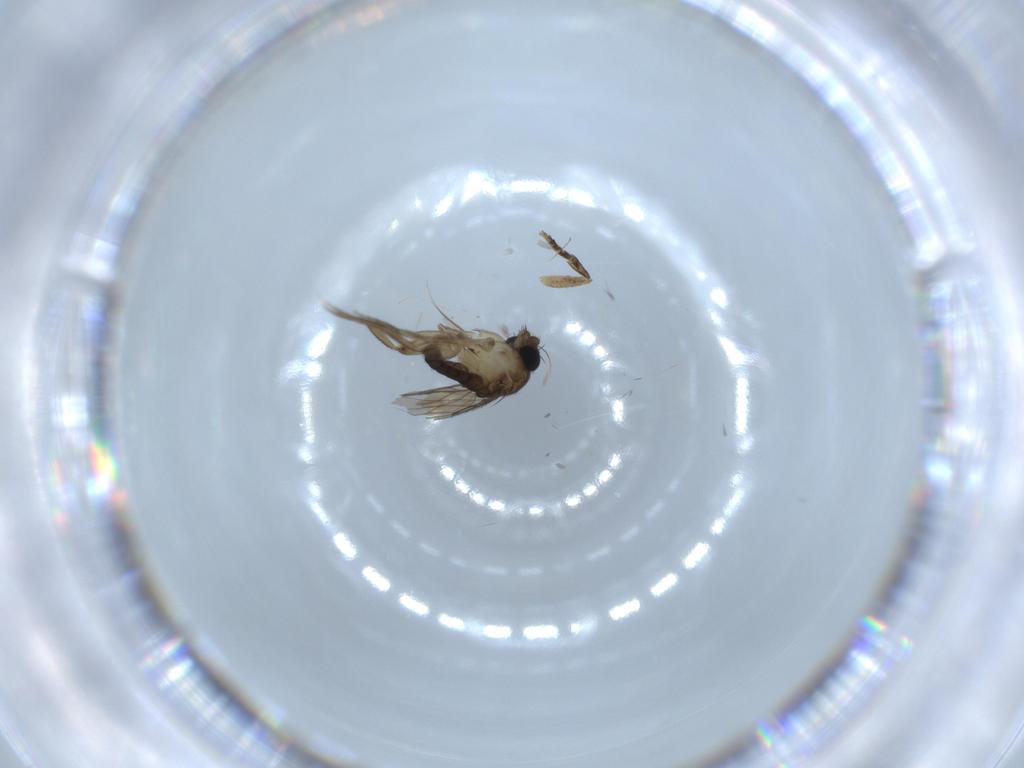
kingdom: Animalia
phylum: Arthropoda
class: Insecta
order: Diptera
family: Phoridae
